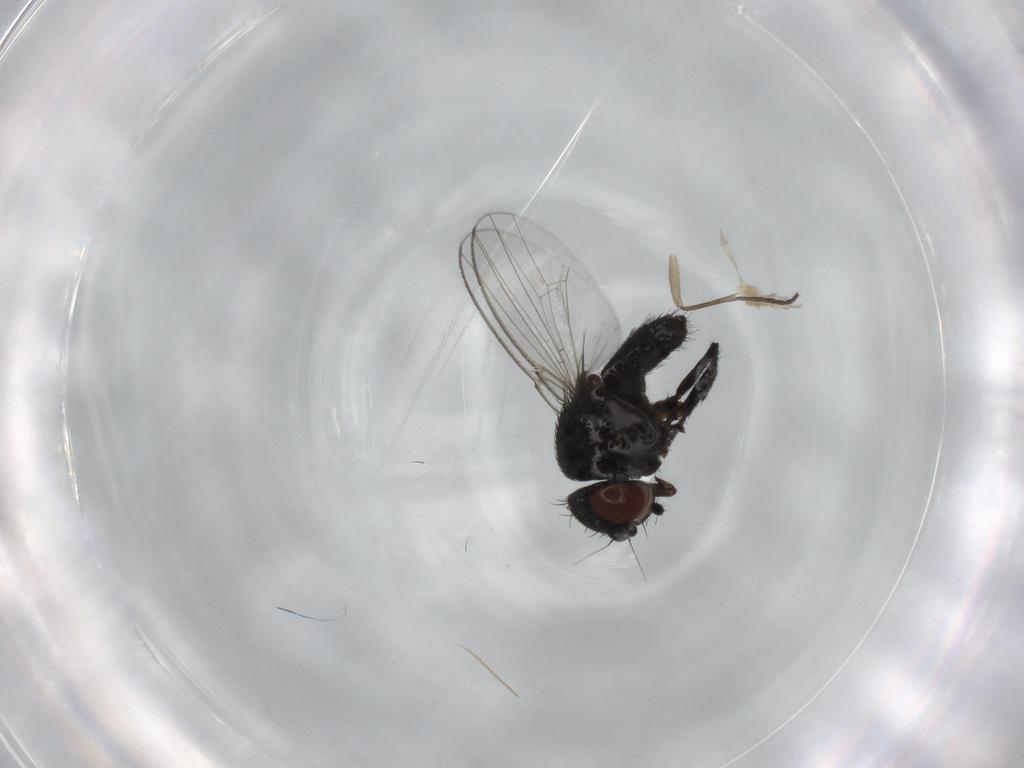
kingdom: Animalia
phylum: Arthropoda
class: Insecta
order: Diptera
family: Sciaridae
